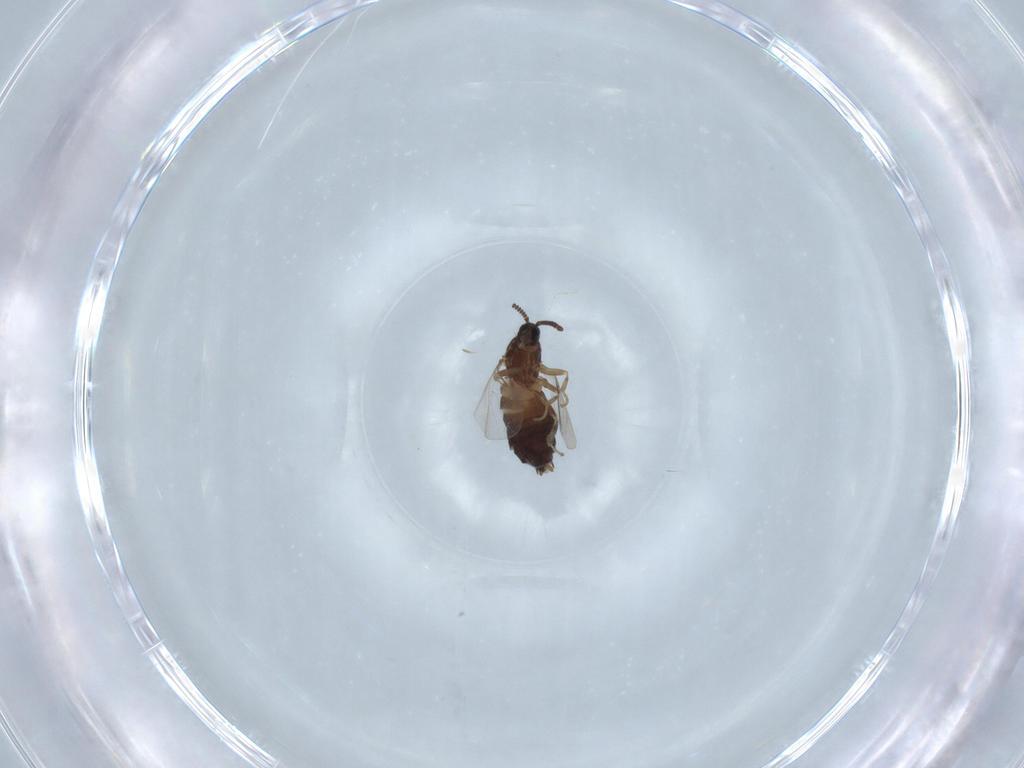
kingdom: Animalia
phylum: Arthropoda
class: Insecta
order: Diptera
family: Scatopsidae
